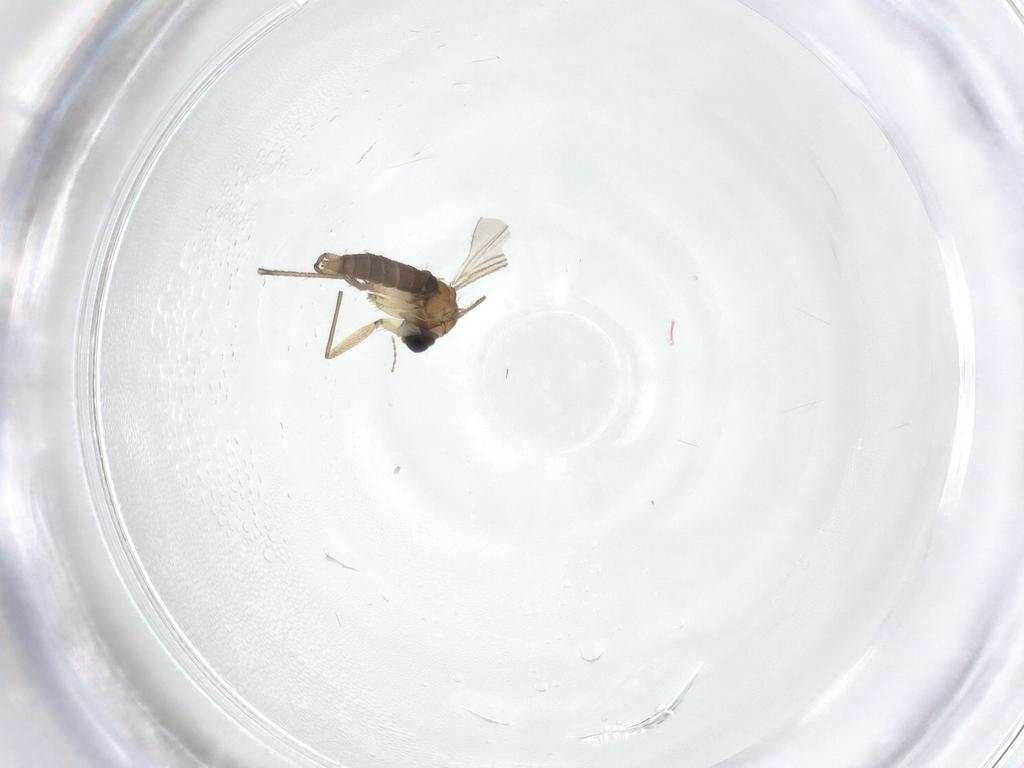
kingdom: Animalia
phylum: Arthropoda
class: Insecta
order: Diptera
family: Sciaridae
